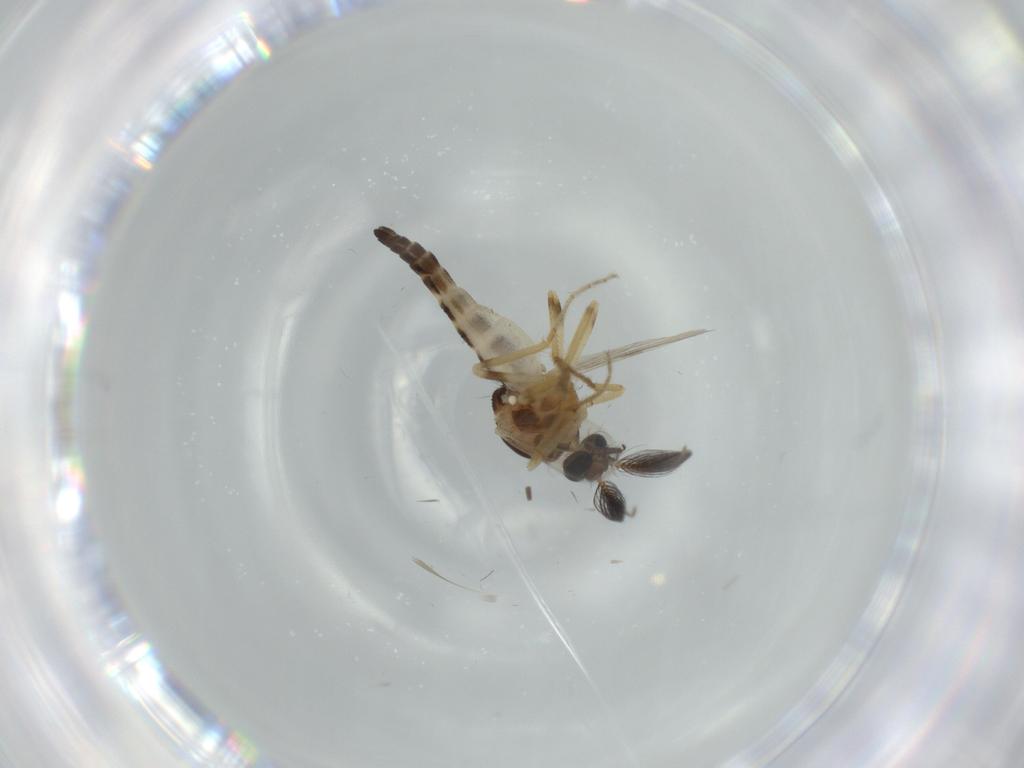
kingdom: Animalia
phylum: Arthropoda
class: Insecta
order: Diptera
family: Ceratopogonidae
